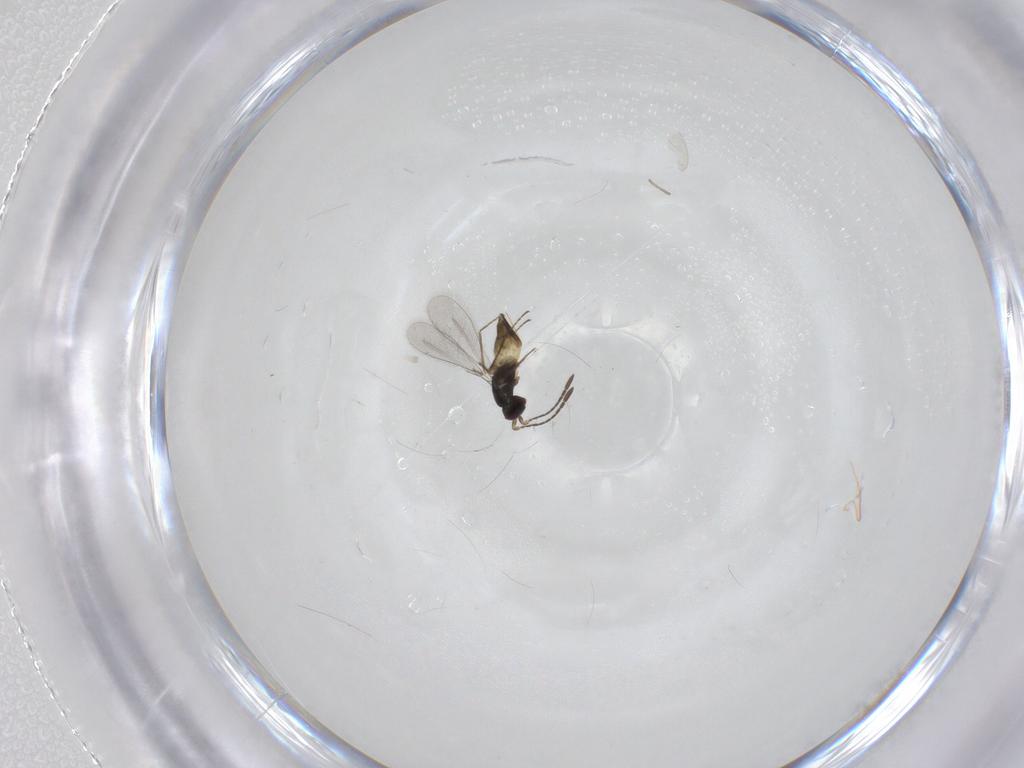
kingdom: Animalia
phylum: Arthropoda
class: Insecta
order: Hymenoptera
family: Mymaridae
